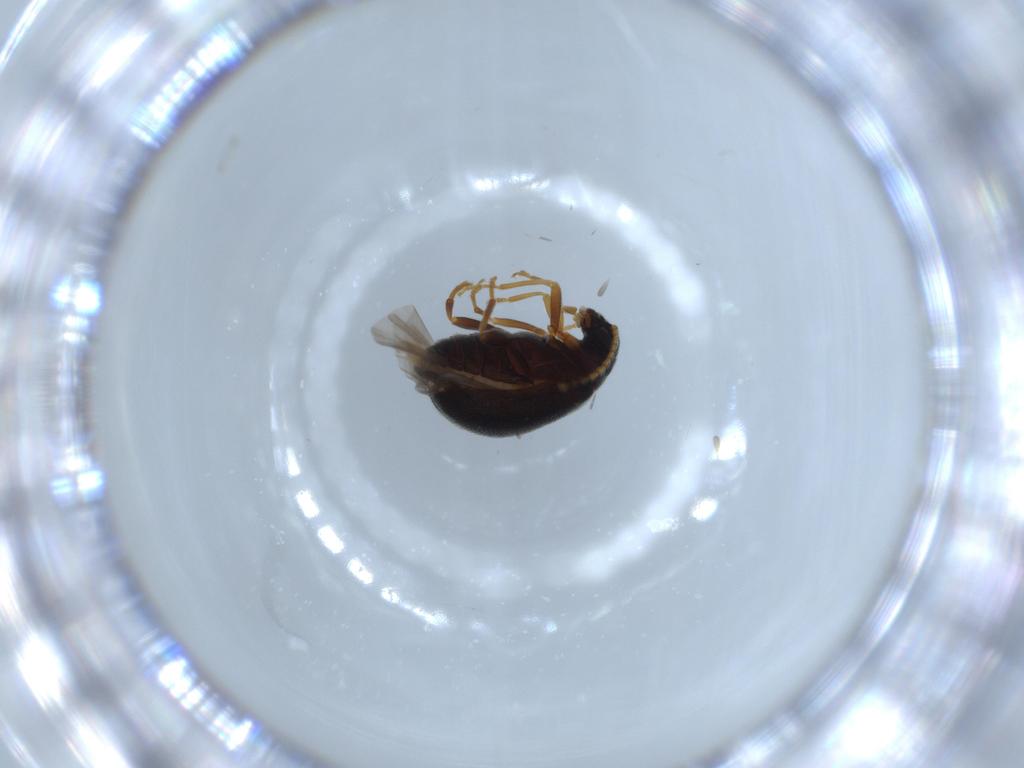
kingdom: Animalia
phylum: Arthropoda
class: Insecta
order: Coleoptera
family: Chrysomelidae
